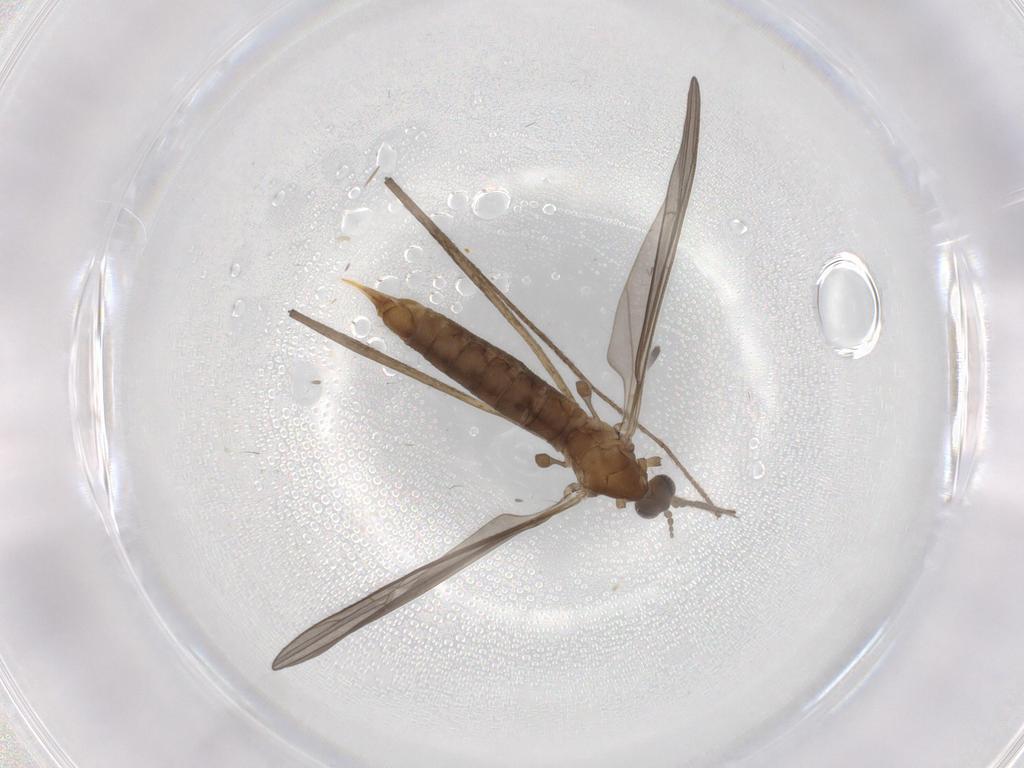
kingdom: Animalia
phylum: Arthropoda
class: Insecta
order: Diptera
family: Limoniidae
